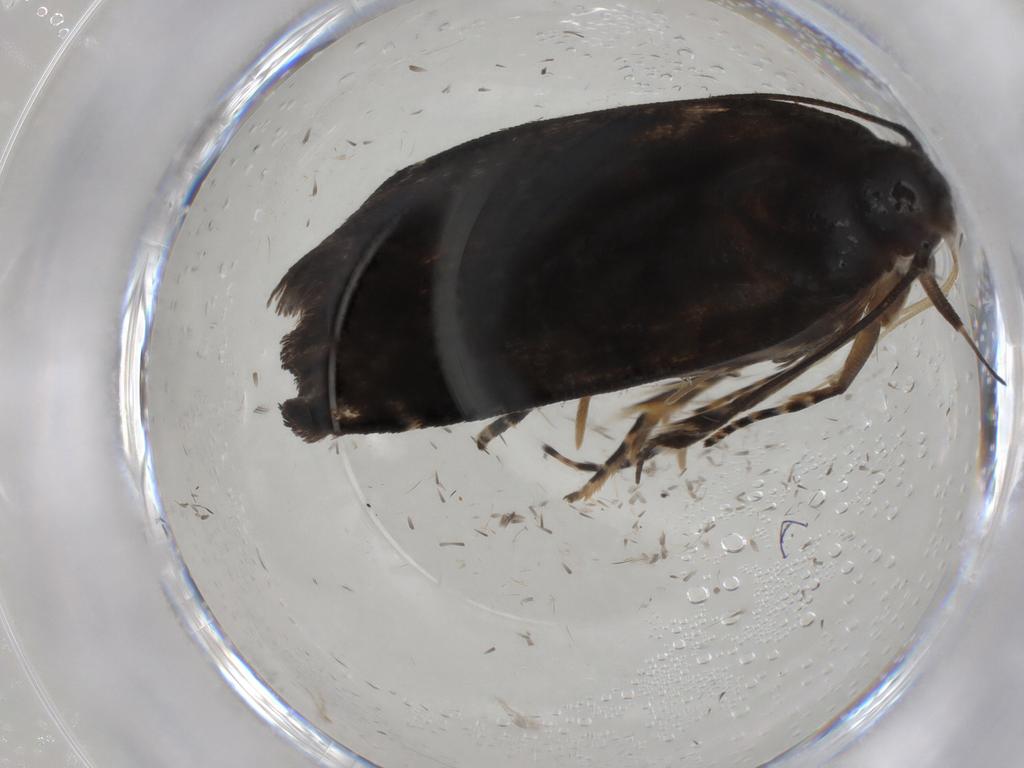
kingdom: Animalia
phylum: Arthropoda
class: Insecta
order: Lepidoptera
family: Crambidae
